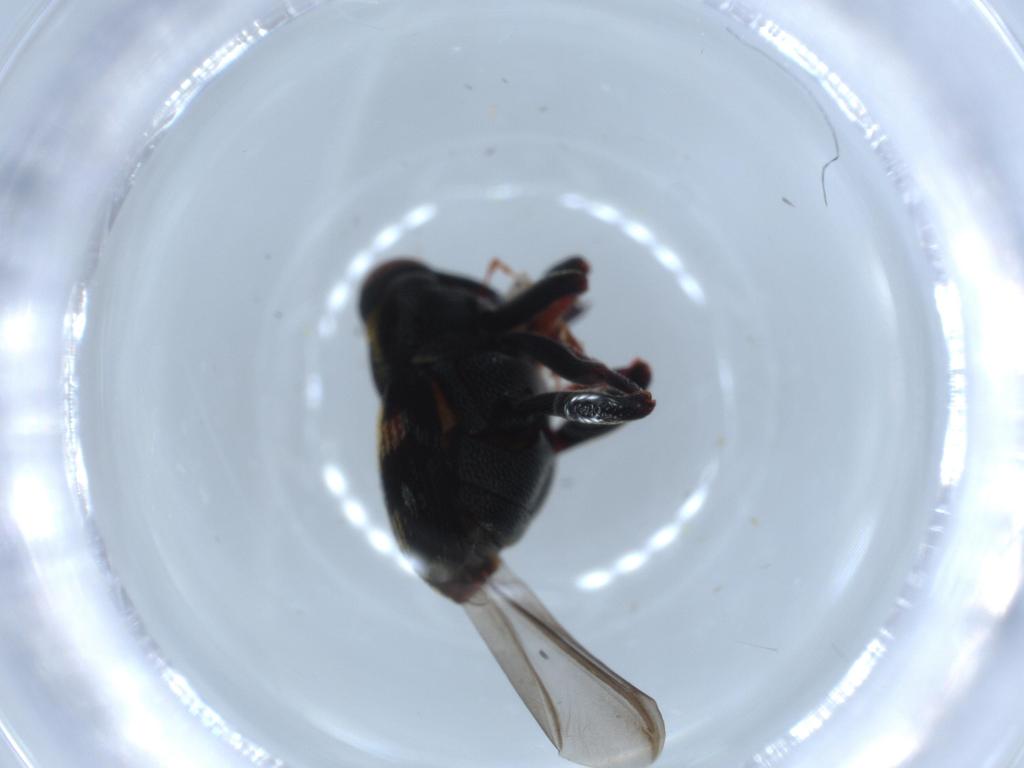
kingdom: Animalia
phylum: Arthropoda
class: Insecta
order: Coleoptera
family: Curculionidae
